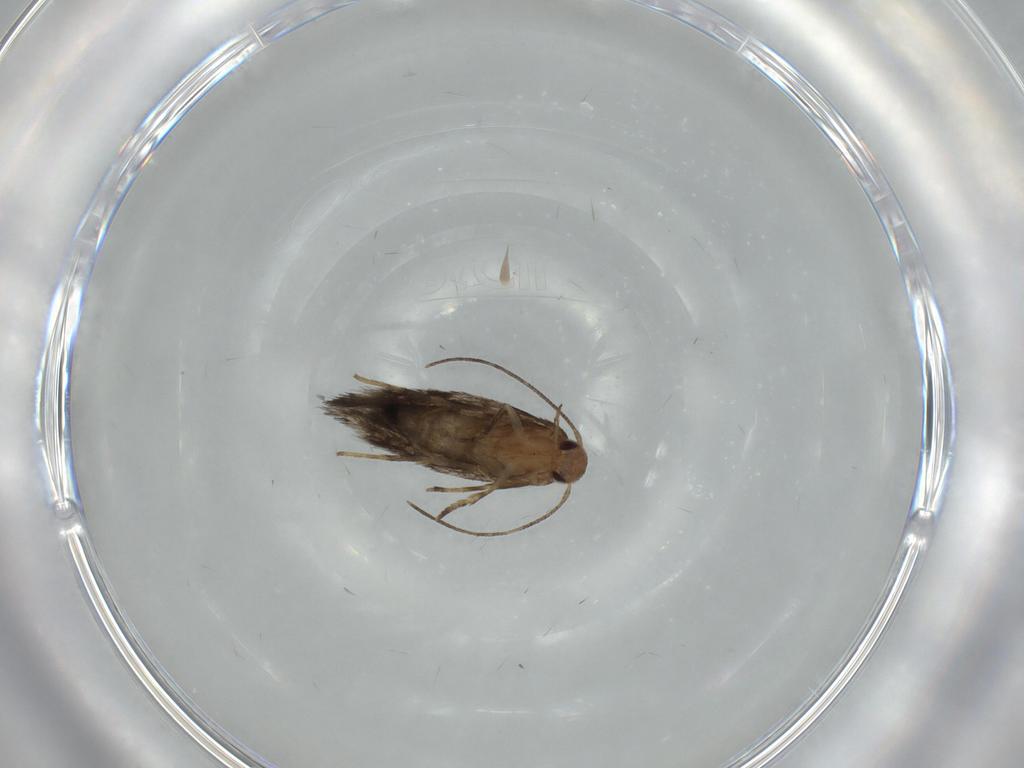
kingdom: Animalia
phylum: Arthropoda
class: Insecta
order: Lepidoptera
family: Cosmopterigidae
